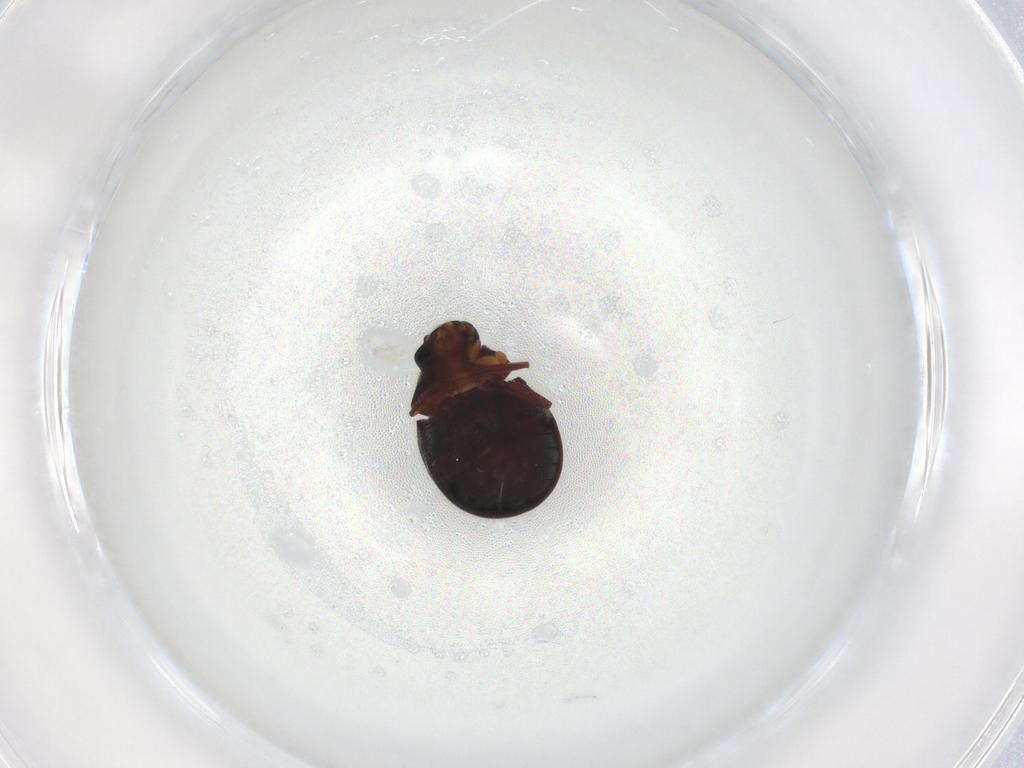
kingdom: Animalia
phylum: Arthropoda
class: Insecta
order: Coleoptera
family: Ptinidae
